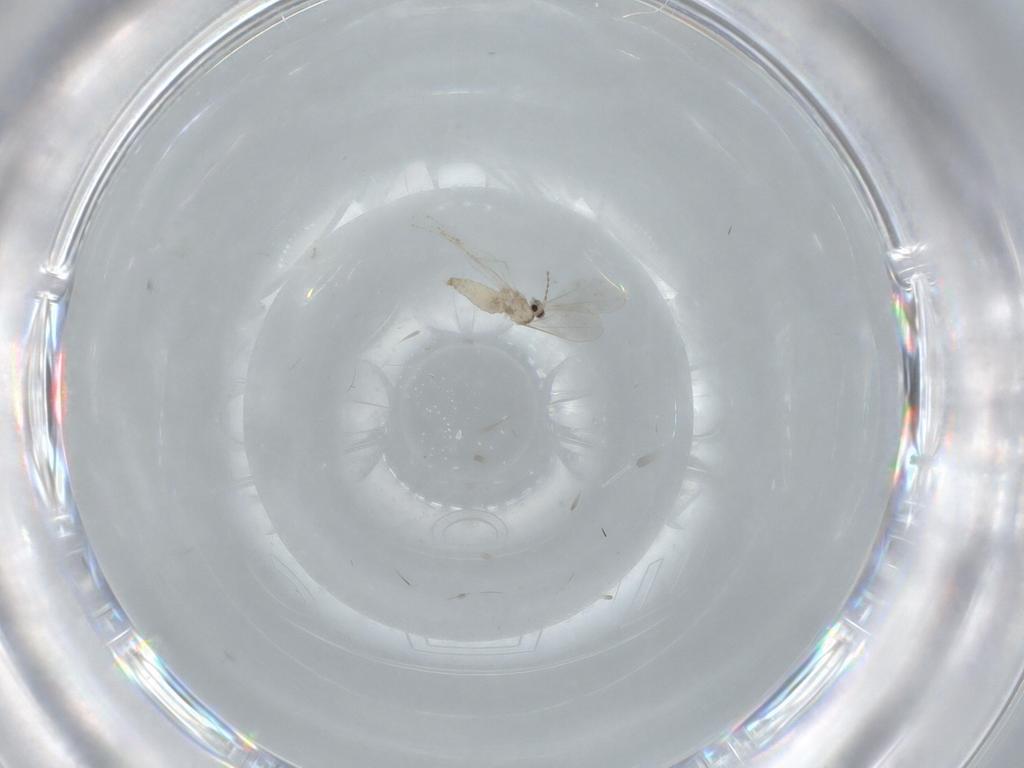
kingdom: Animalia
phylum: Arthropoda
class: Insecta
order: Diptera
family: Cecidomyiidae
